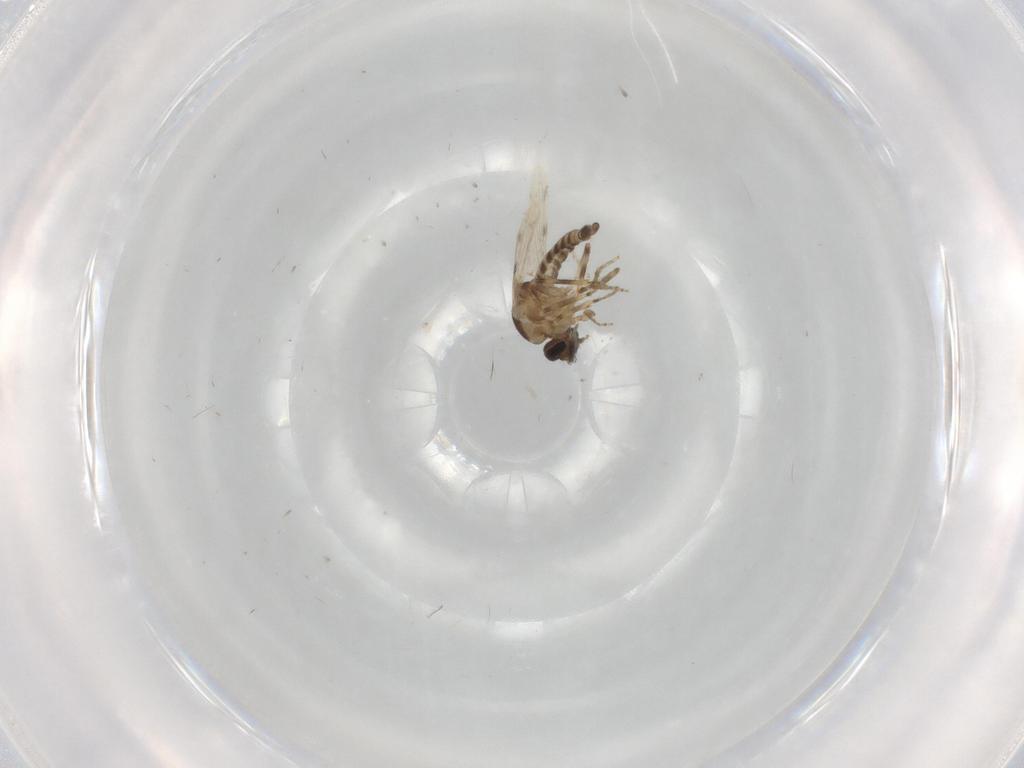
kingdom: Animalia
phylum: Arthropoda
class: Insecta
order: Diptera
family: Ceratopogonidae
